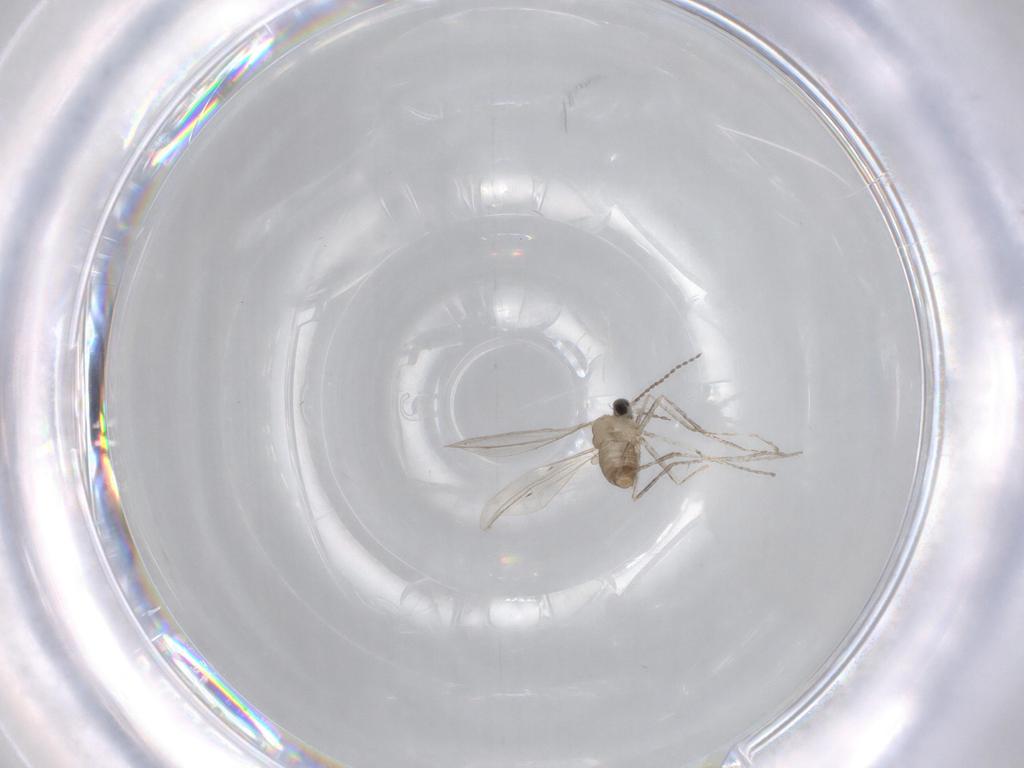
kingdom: Animalia
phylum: Arthropoda
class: Insecta
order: Diptera
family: Cecidomyiidae
